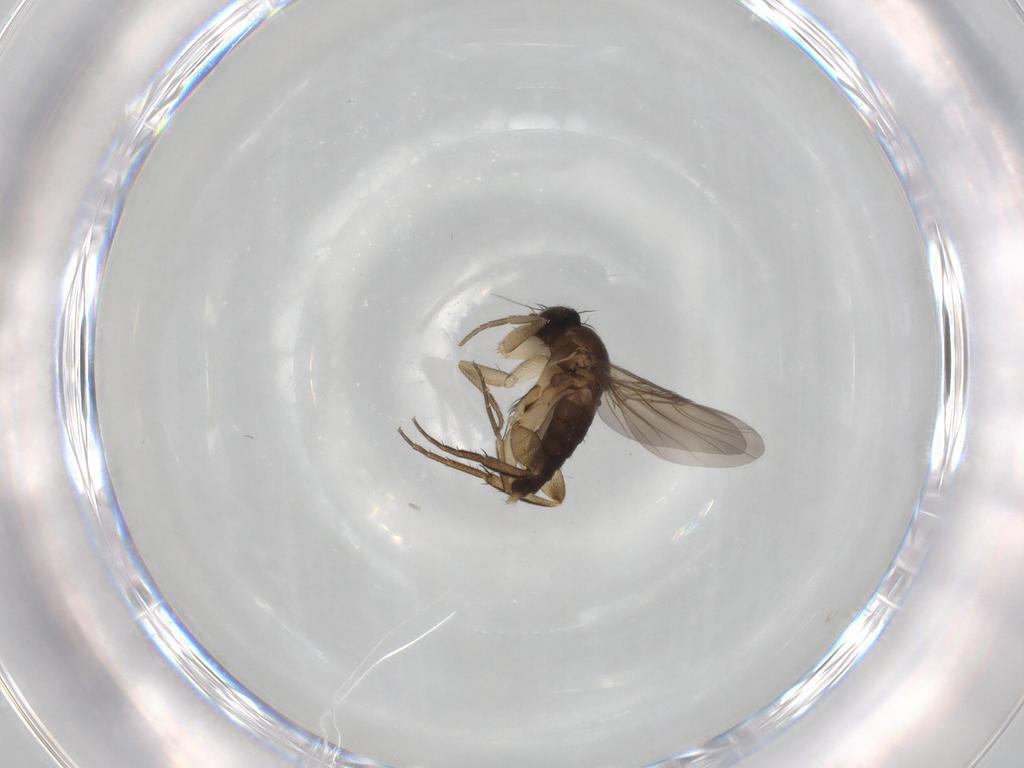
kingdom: Animalia
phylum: Arthropoda
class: Insecta
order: Diptera
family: Phoridae
